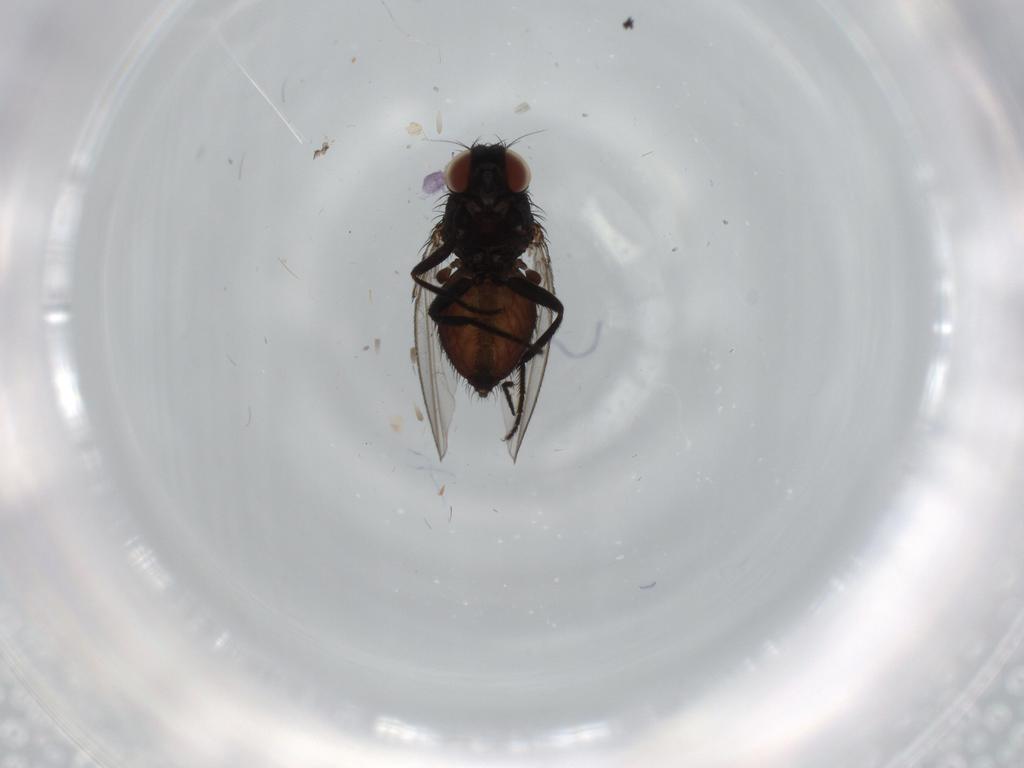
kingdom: Animalia
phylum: Arthropoda
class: Insecta
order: Diptera
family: Milichiidae
